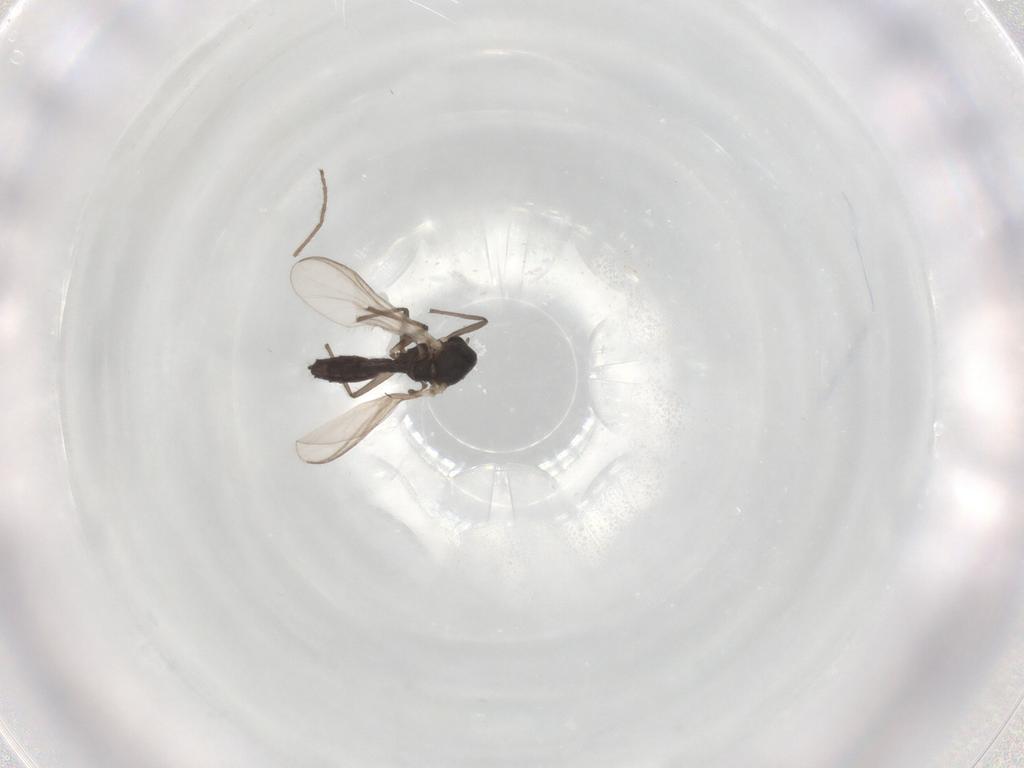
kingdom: Animalia
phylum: Arthropoda
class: Insecta
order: Diptera
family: Chironomidae
